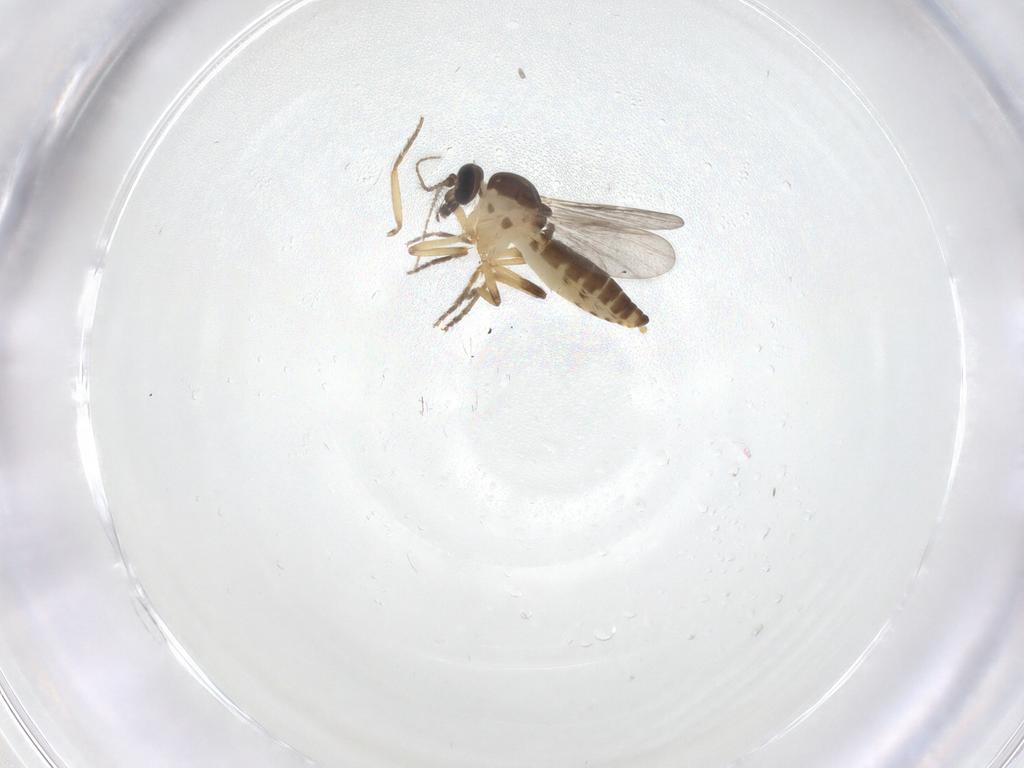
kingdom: Animalia
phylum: Arthropoda
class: Insecta
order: Diptera
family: Ceratopogonidae
